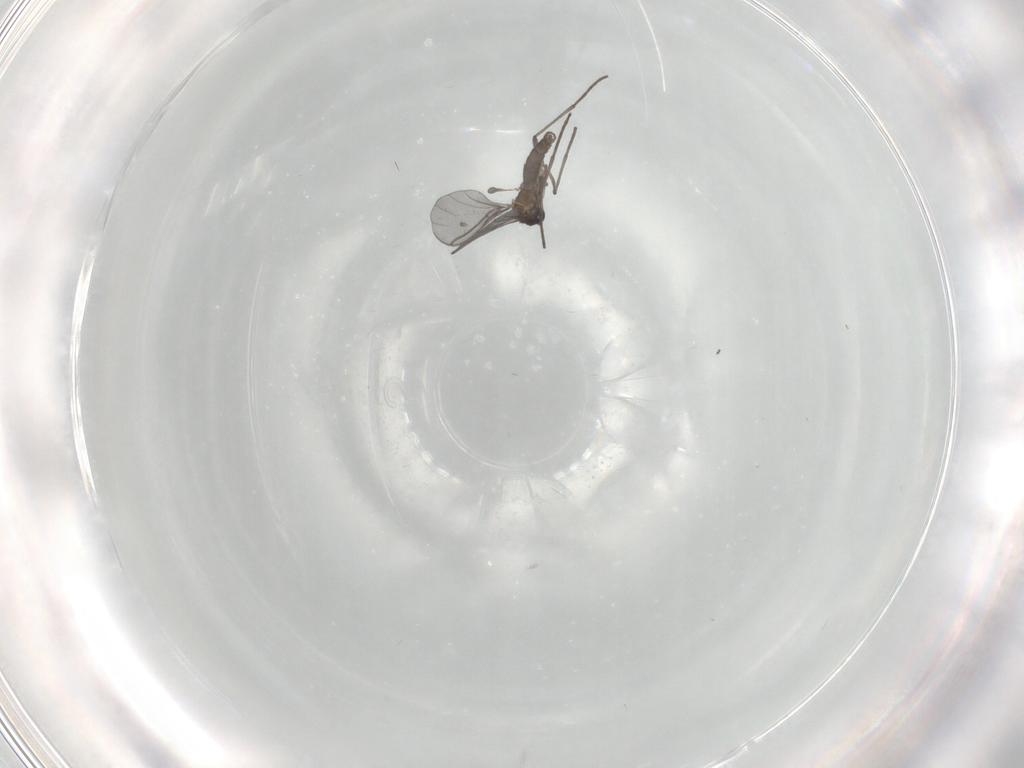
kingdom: Animalia
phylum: Arthropoda
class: Insecta
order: Diptera
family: Milichiidae
